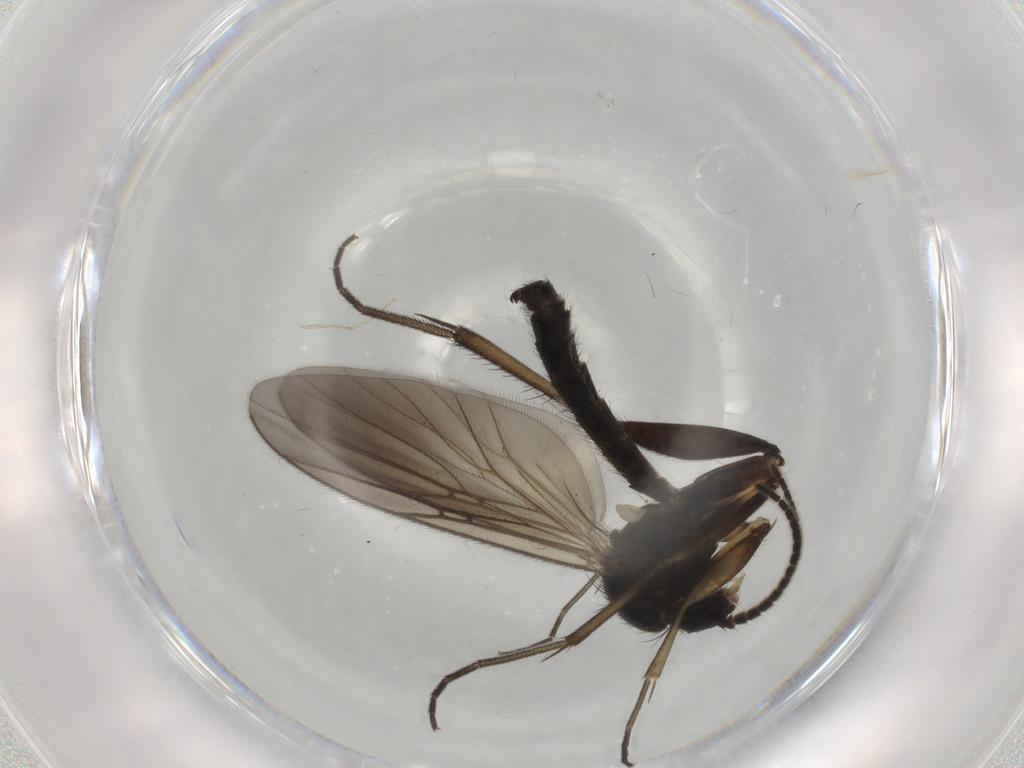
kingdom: Animalia
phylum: Arthropoda
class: Insecta
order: Diptera
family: Mycetophilidae
